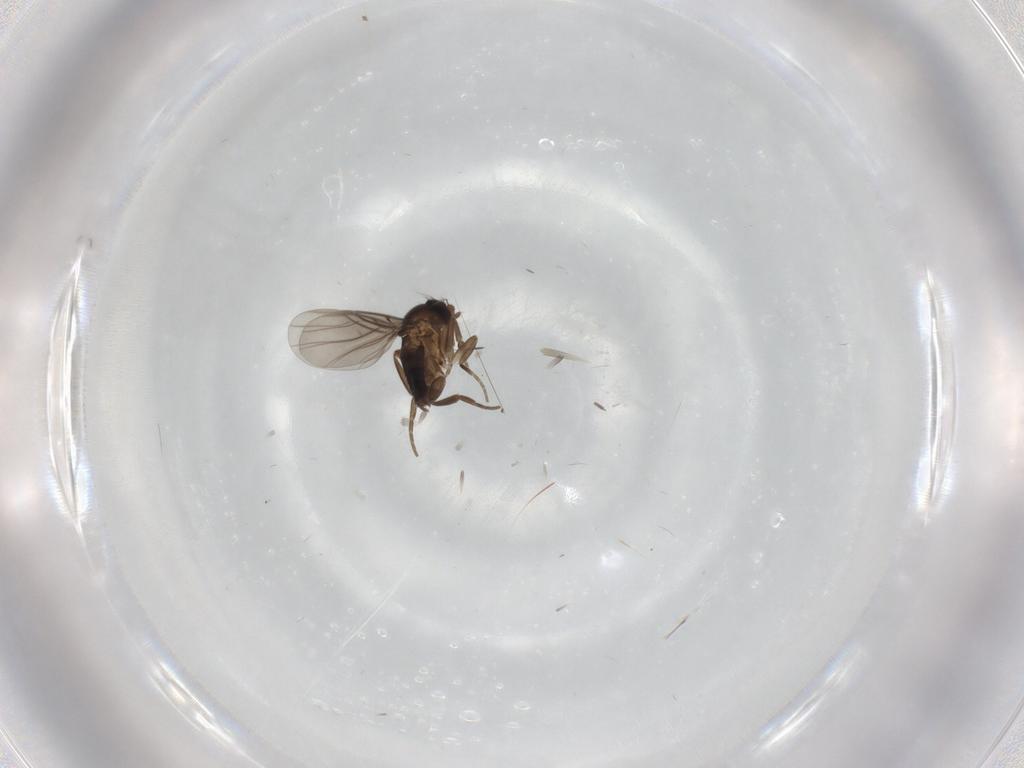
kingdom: Animalia
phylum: Arthropoda
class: Insecta
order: Diptera
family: Phoridae
